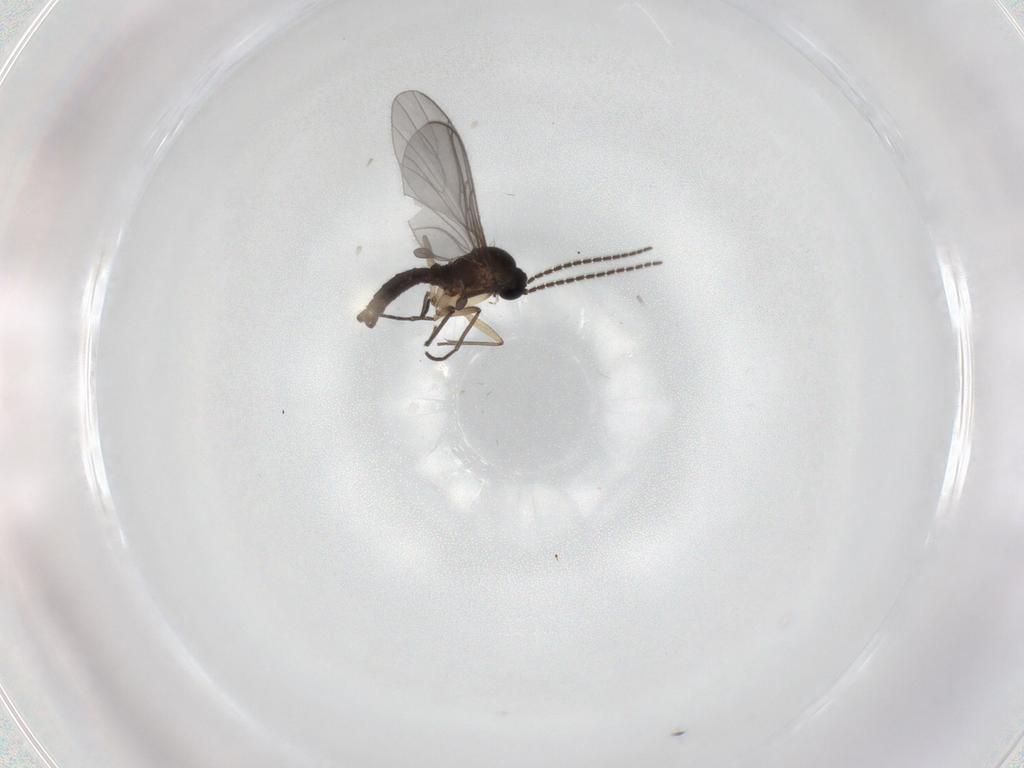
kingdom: Animalia
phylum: Arthropoda
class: Insecta
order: Diptera
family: Sciaridae
